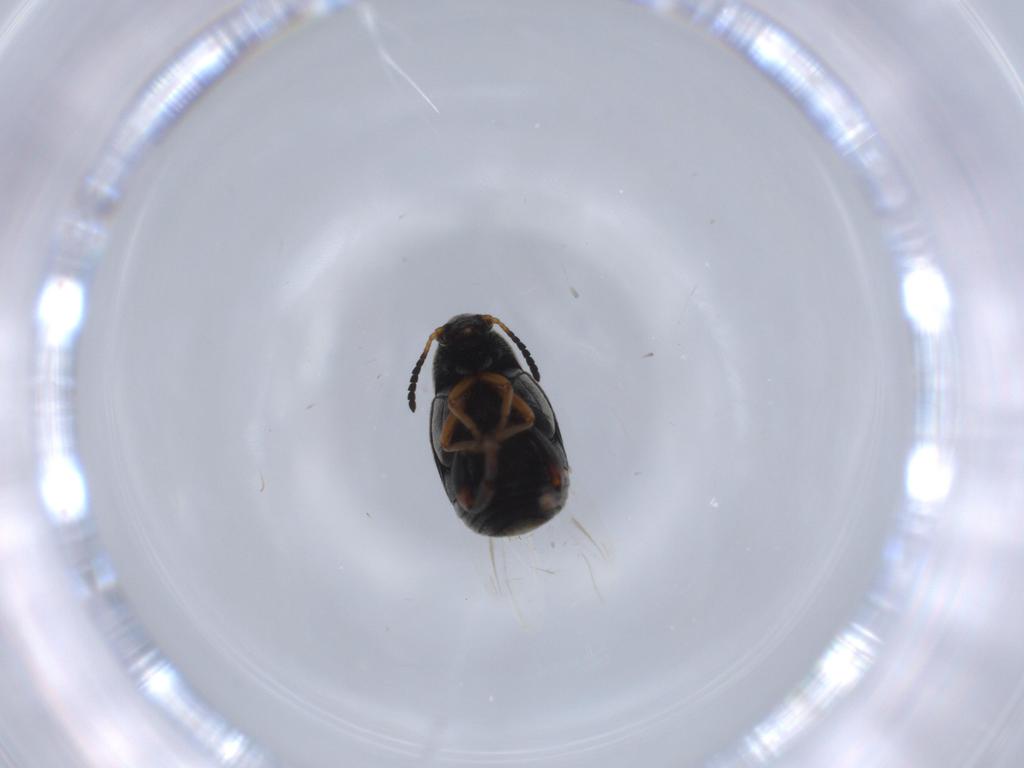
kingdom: Animalia
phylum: Arthropoda
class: Insecta
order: Coleoptera
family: Chrysomelidae
